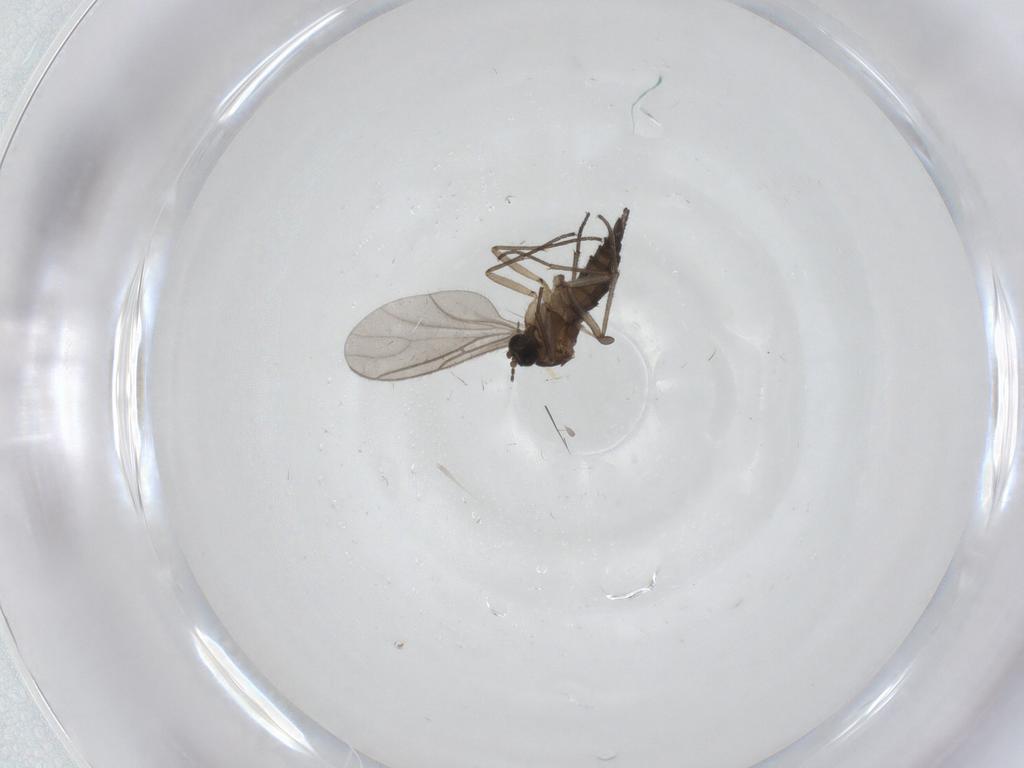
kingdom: Animalia
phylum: Arthropoda
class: Insecta
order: Diptera
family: Sciaridae
